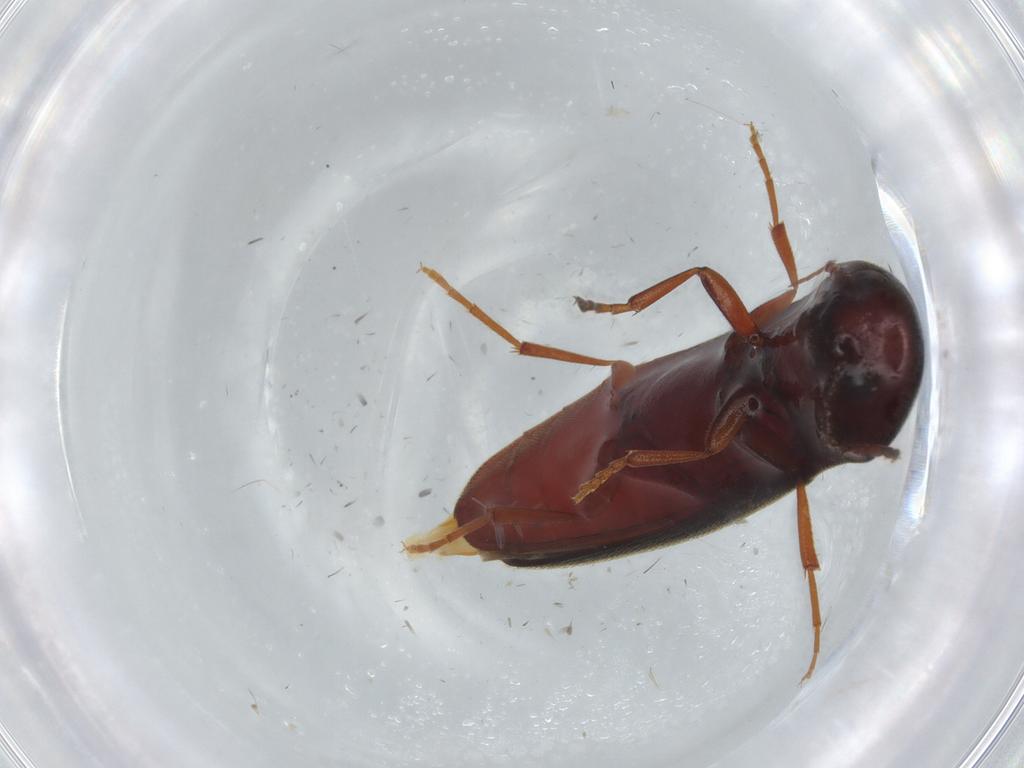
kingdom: Animalia
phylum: Arthropoda
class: Insecta
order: Coleoptera
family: Eucnemidae
